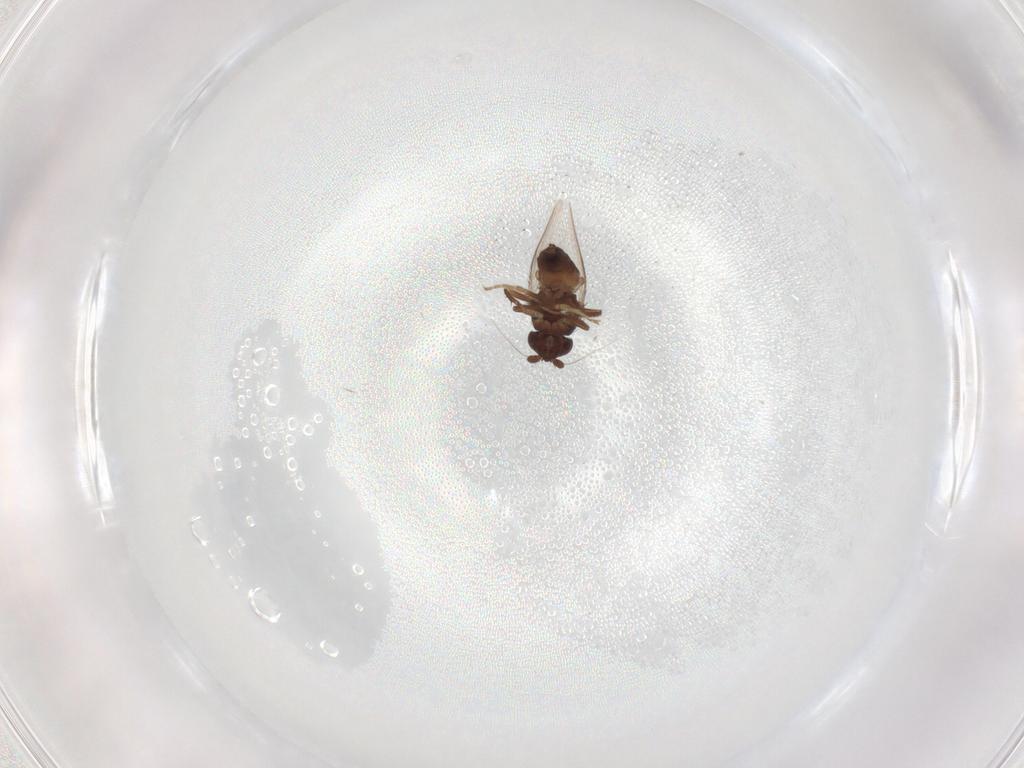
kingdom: Animalia
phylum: Arthropoda
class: Insecta
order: Diptera
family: Sphaeroceridae
